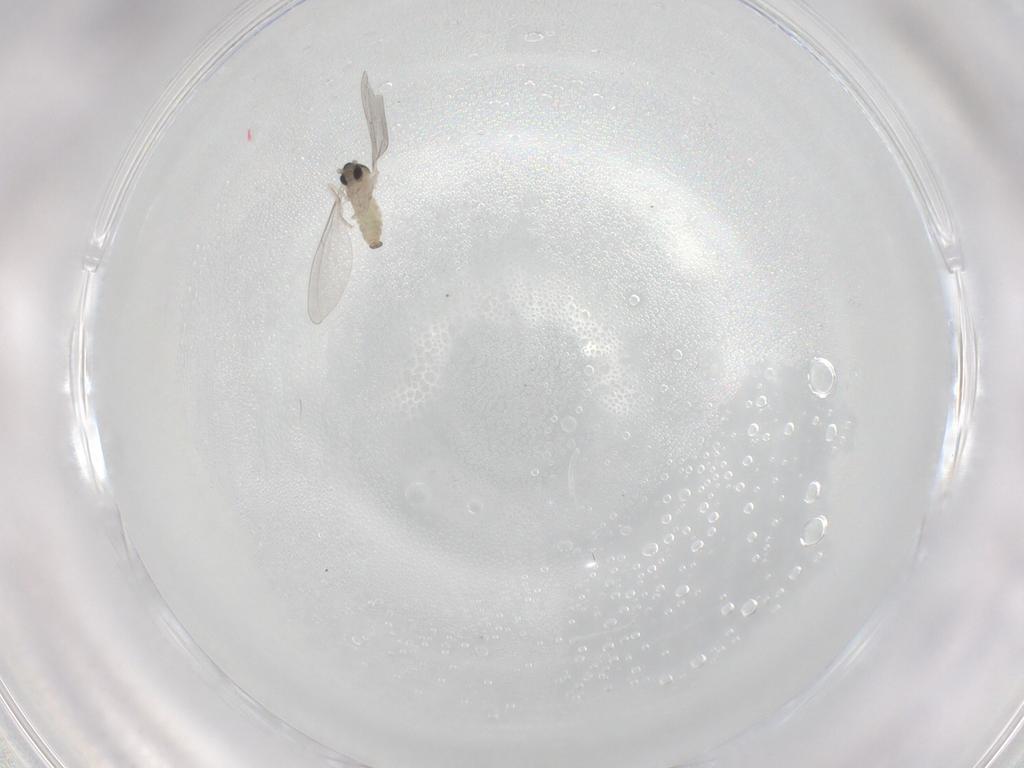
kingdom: Animalia
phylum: Arthropoda
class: Insecta
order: Diptera
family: Cecidomyiidae
